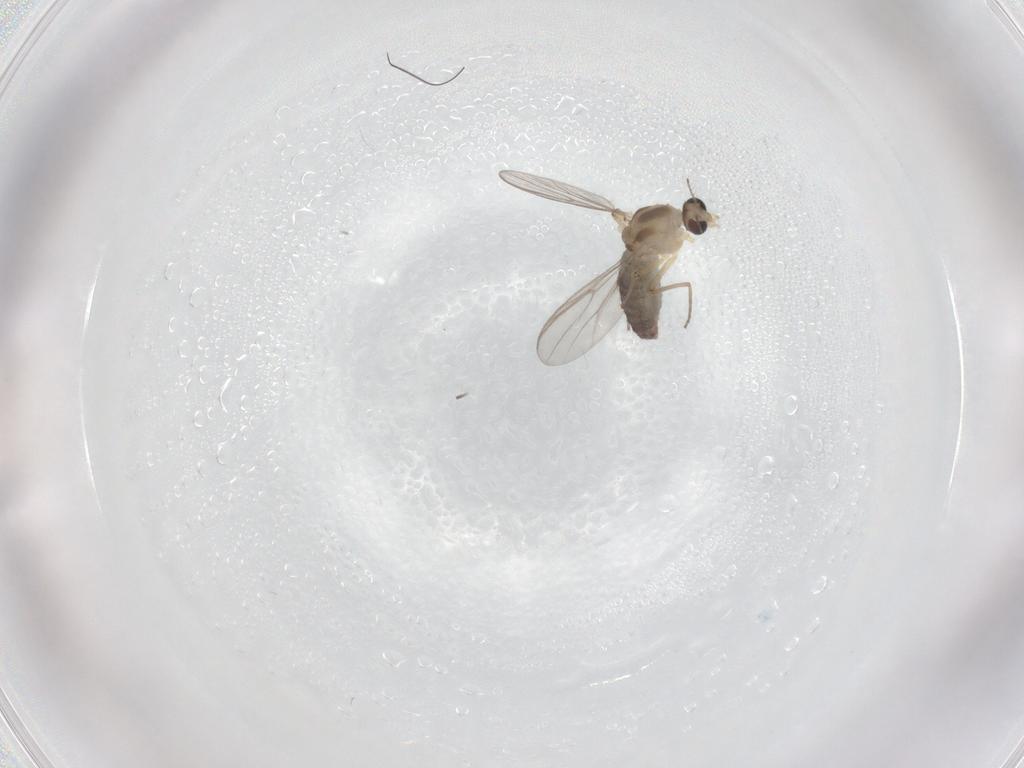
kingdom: Animalia
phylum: Arthropoda
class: Insecta
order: Diptera
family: Chironomidae
